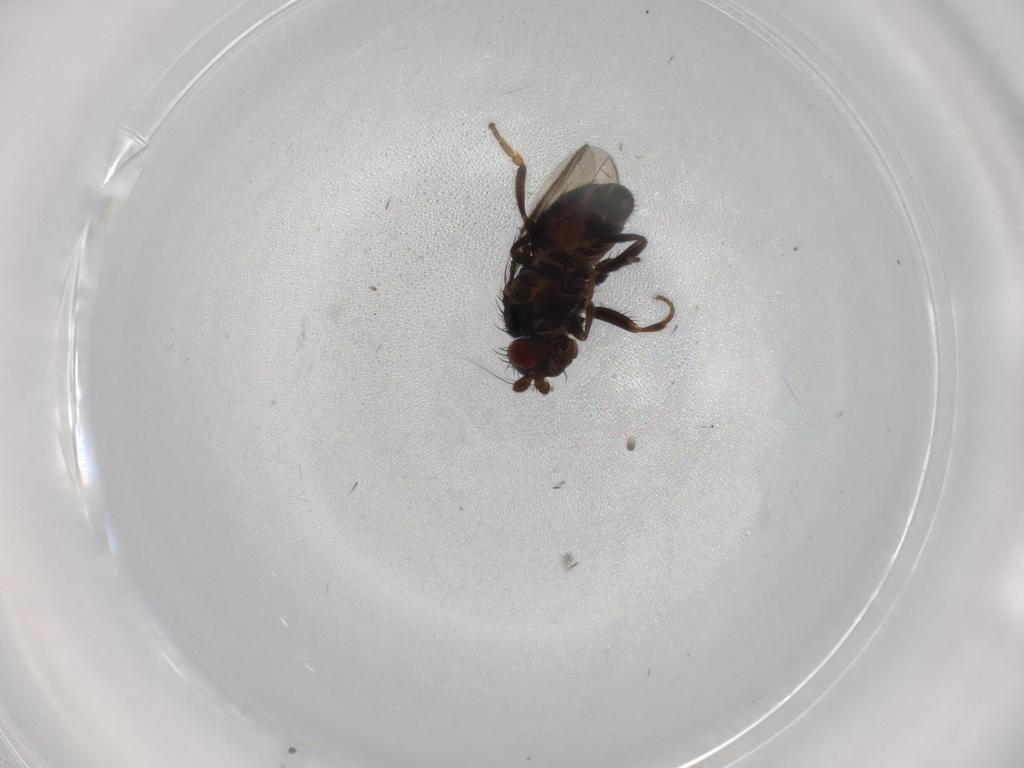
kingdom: Animalia
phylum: Arthropoda
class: Insecta
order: Diptera
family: Sphaeroceridae
